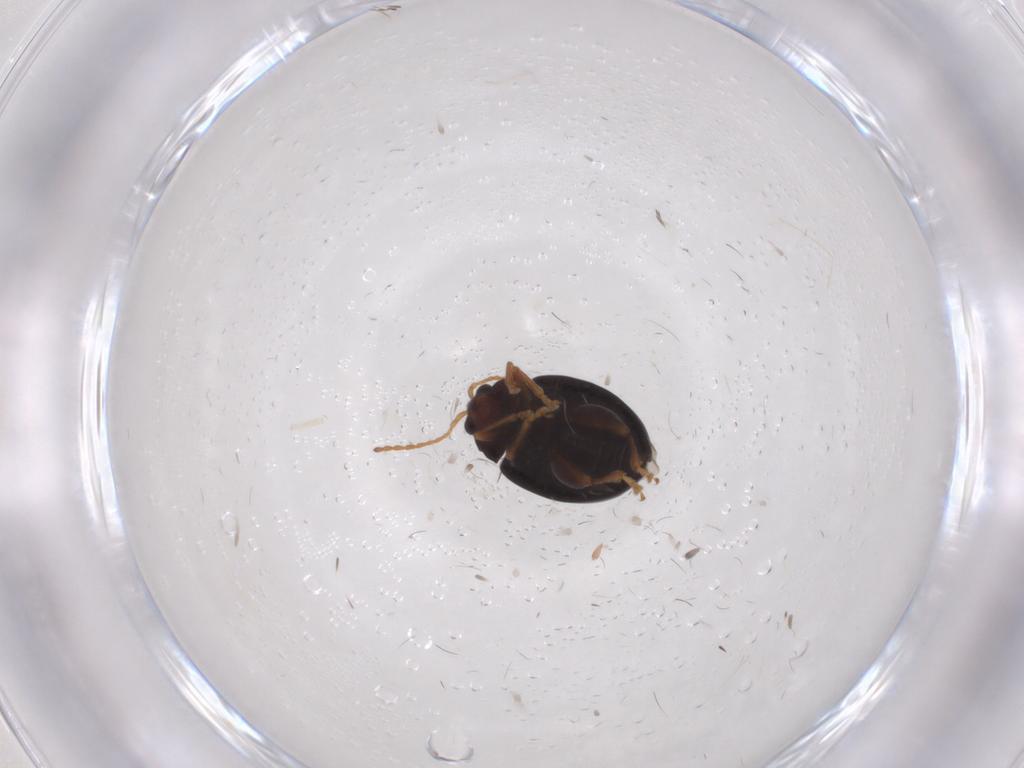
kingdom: Animalia
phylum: Arthropoda
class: Insecta
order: Coleoptera
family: Chrysomelidae
